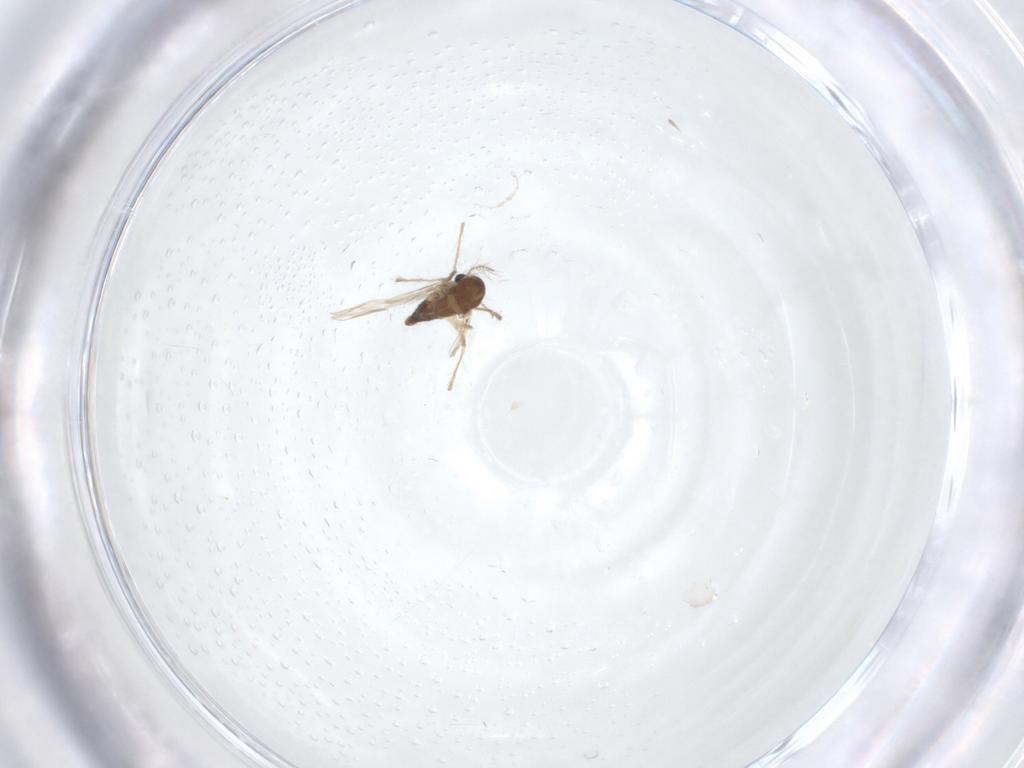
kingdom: Animalia
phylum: Arthropoda
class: Insecta
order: Diptera
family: Chironomidae
